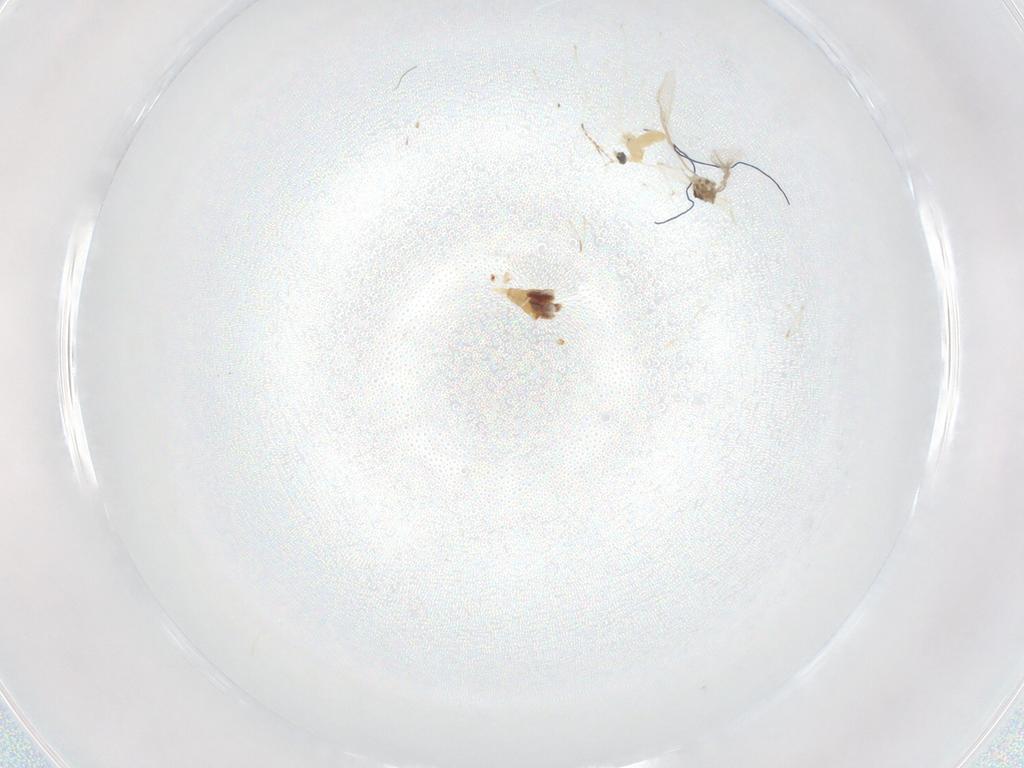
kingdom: Animalia
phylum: Arthropoda
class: Insecta
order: Diptera
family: Cecidomyiidae
